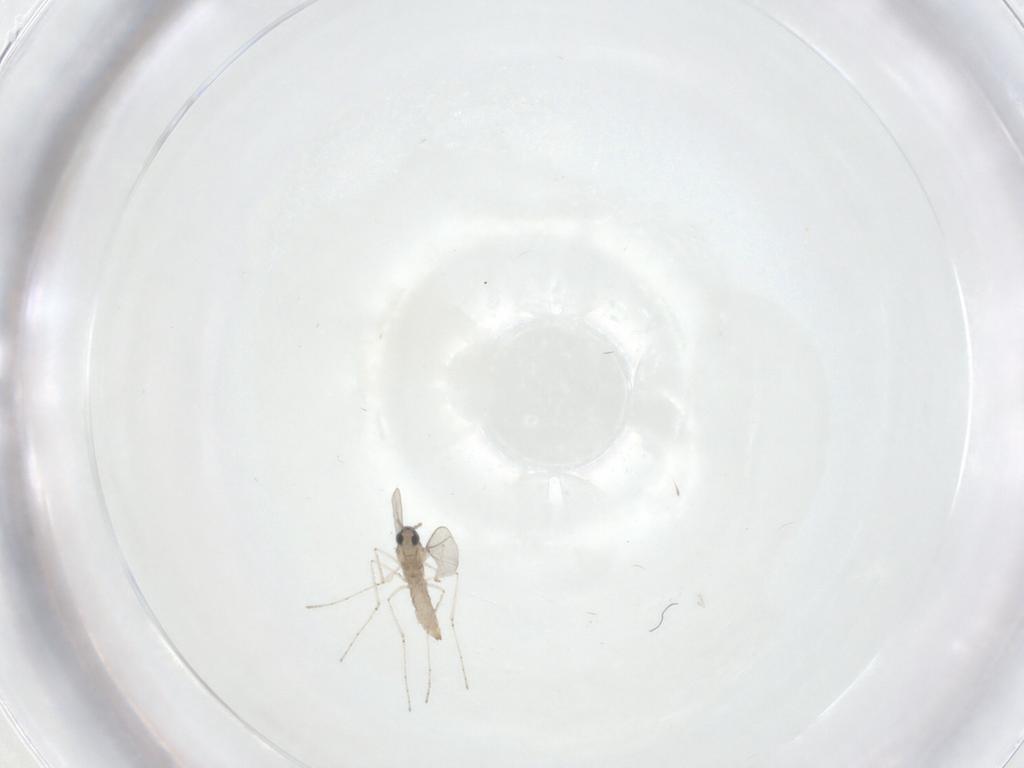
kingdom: Animalia
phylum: Arthropoda
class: Insecta
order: Diptera
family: Cecidomyiidae
